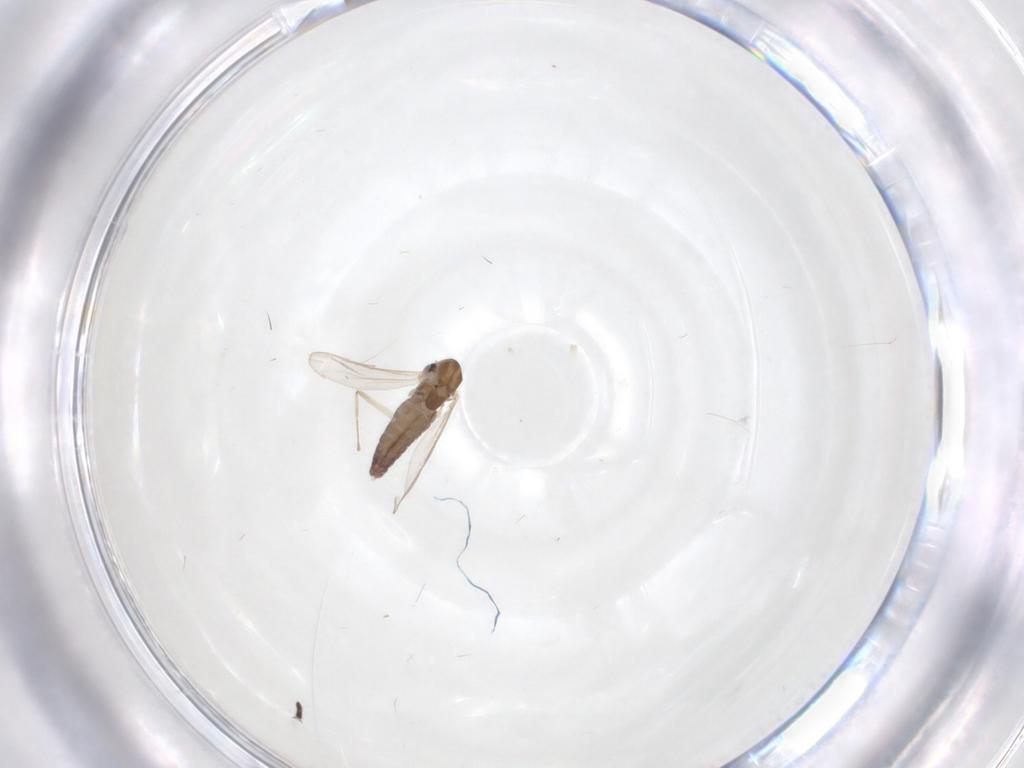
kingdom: Animalia
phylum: Arthropoda
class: Insecta
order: Diptera
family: Hybotidae
